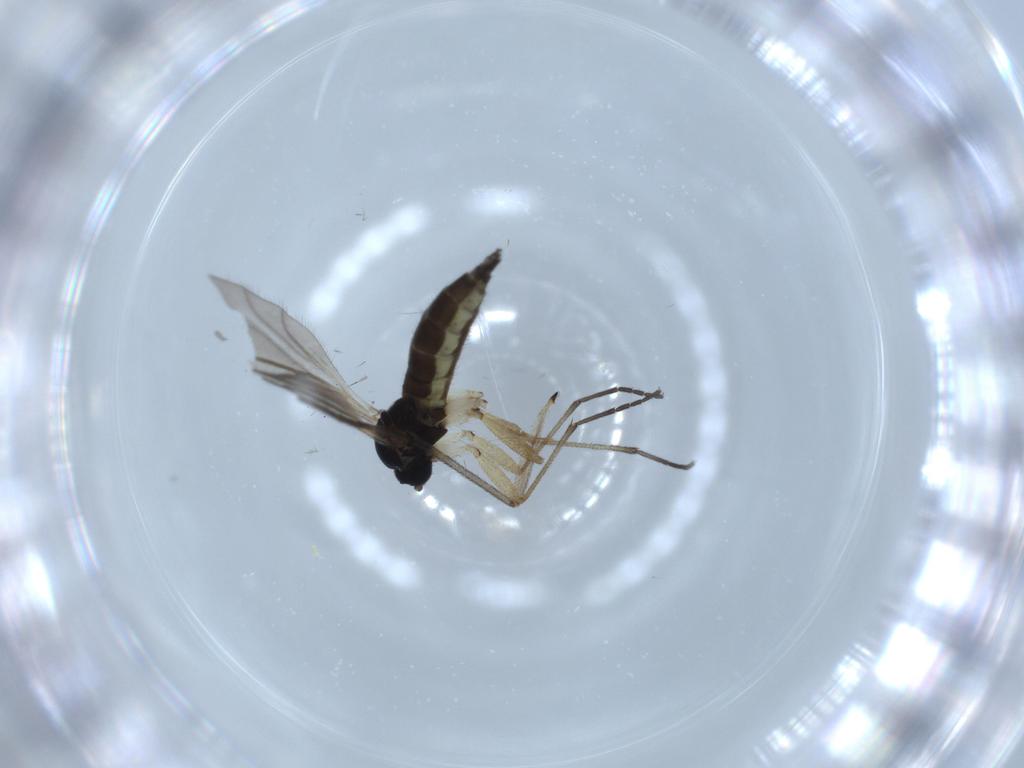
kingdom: Animalia
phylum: Arthropoda
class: Insecta
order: Diptera
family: Sciaridae
